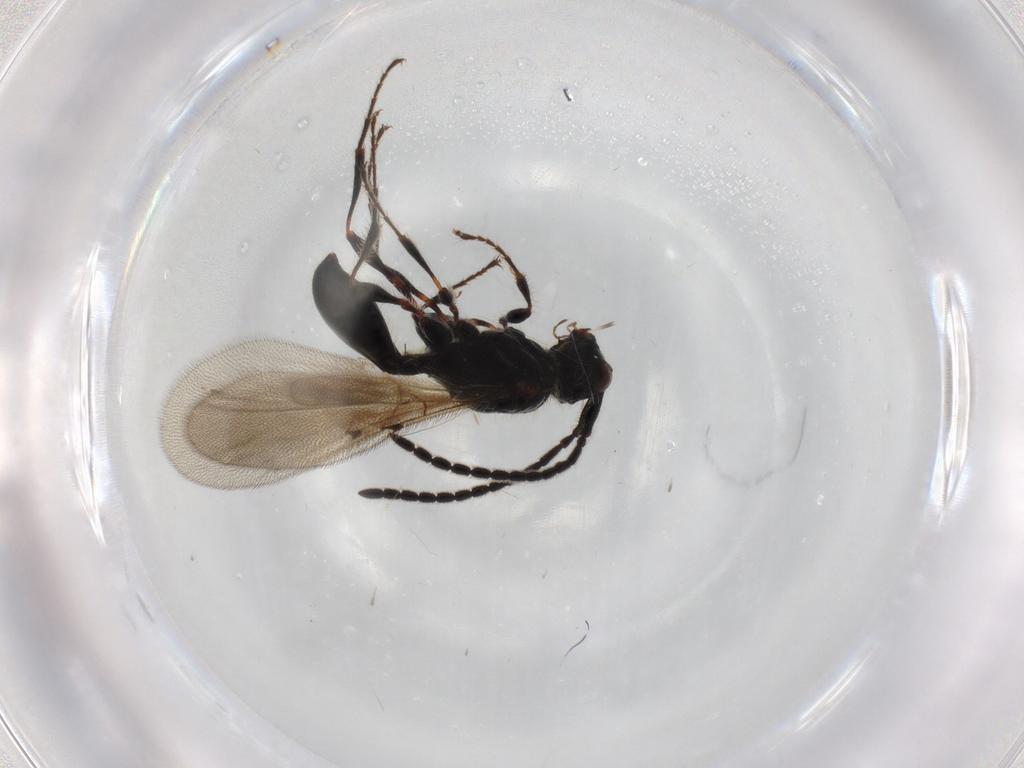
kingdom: Animalia
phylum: Arthropoda
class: Insecta
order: Hymenoptera
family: Diapriidae
